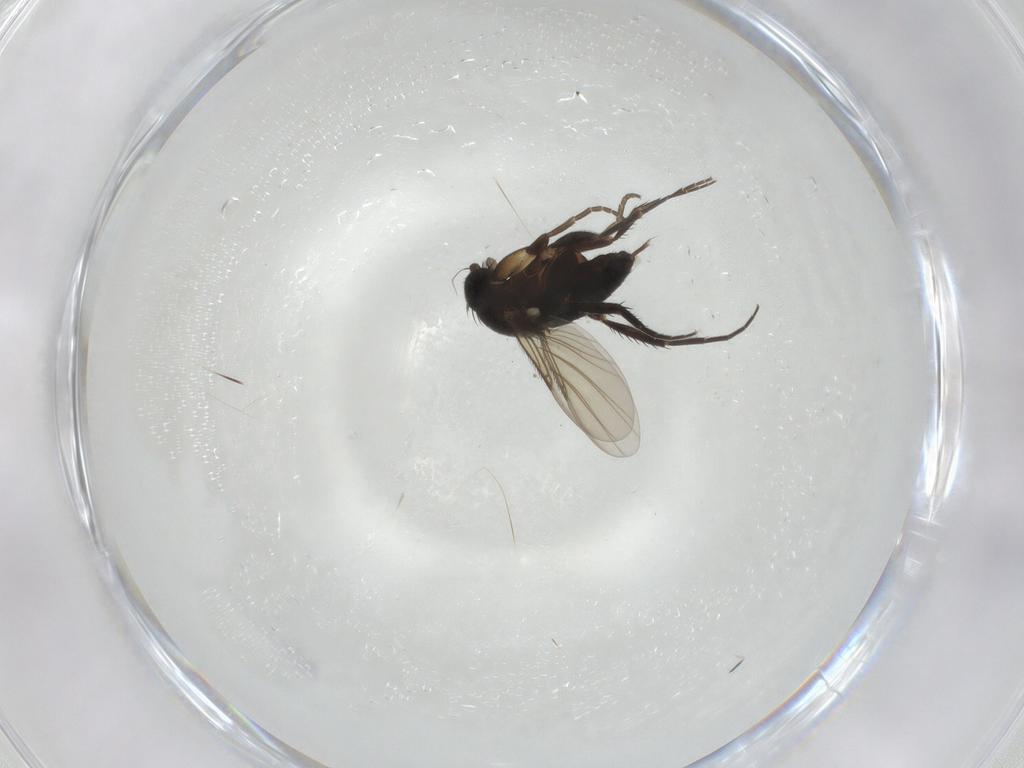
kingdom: Animalia
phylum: Arthropoda
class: Insecta
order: Diptera
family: Phoridae
